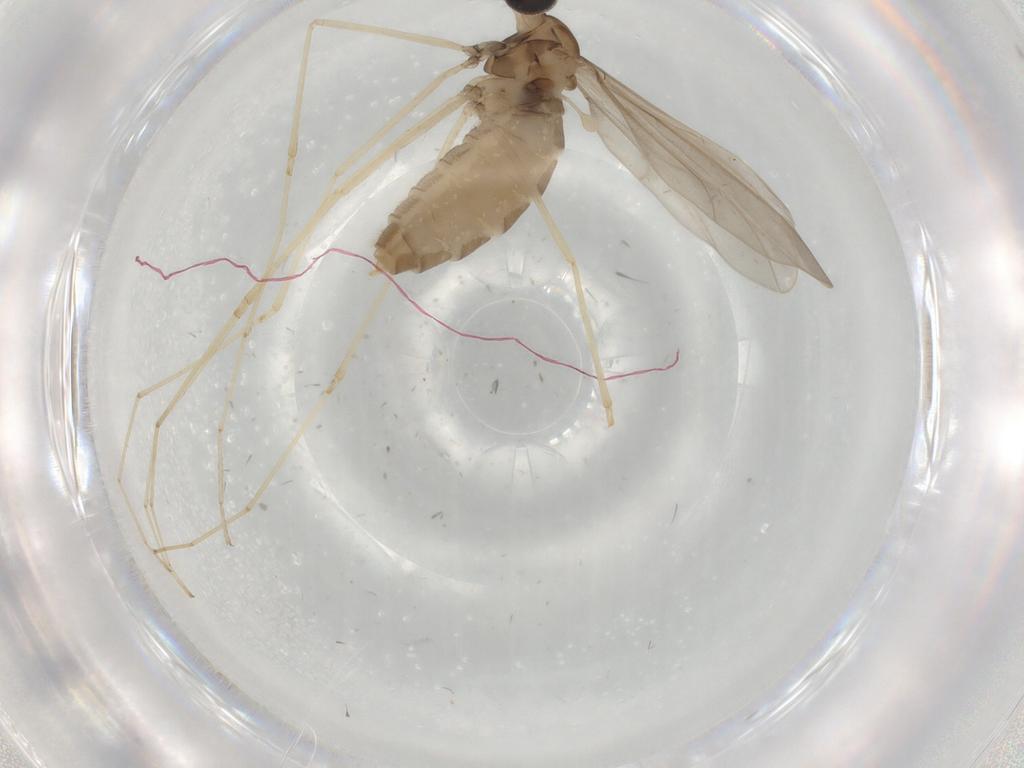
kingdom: Animalia
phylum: Arthropoda
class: Insecta
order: Diptera
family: Cecidomyiidae
